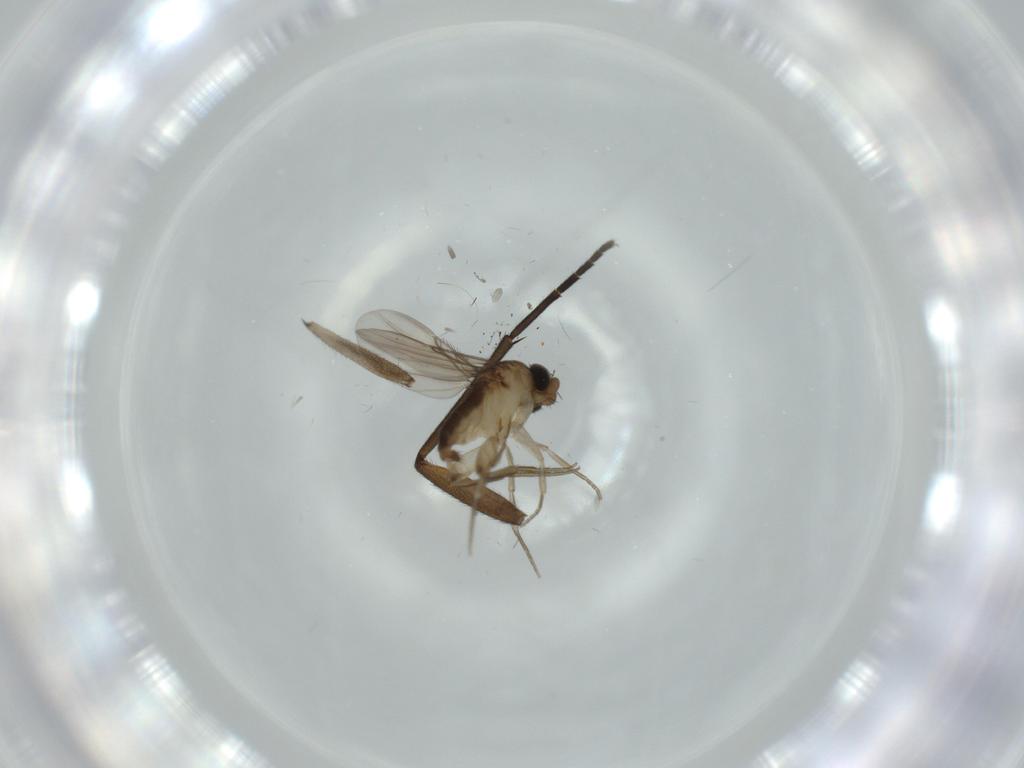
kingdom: Animalia
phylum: Arthropoda
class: Insecta
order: Diptera
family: Phoridae
